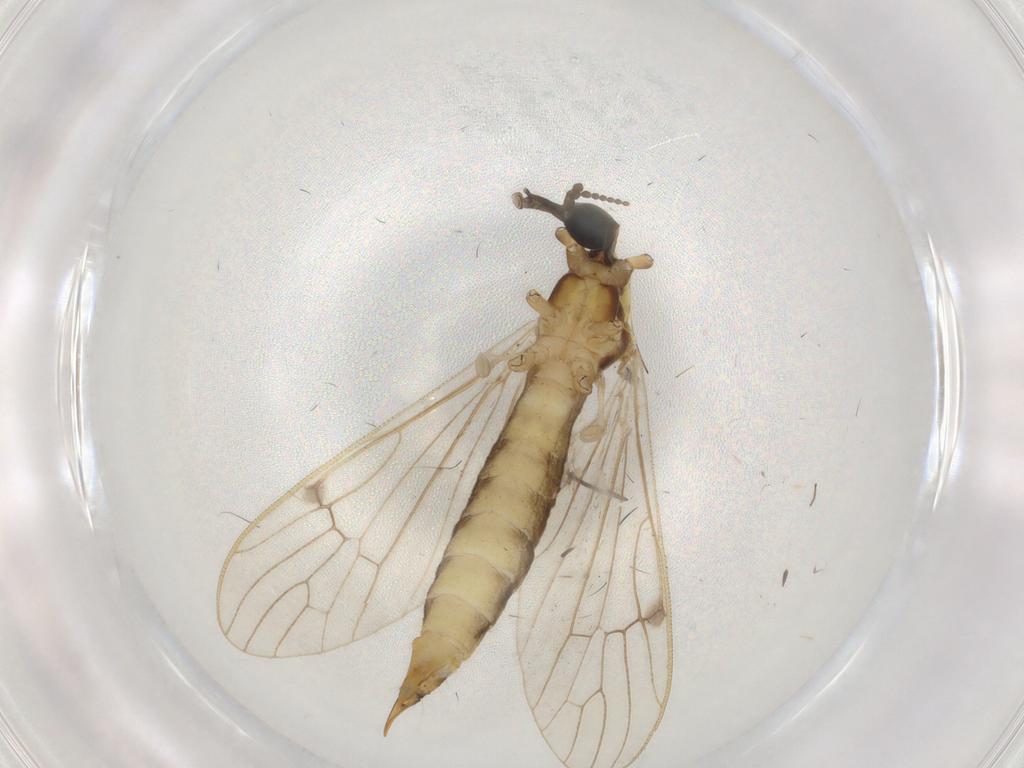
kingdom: Animalia
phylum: Arthropoda
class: Insecta
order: Diptera
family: Limoniidae
